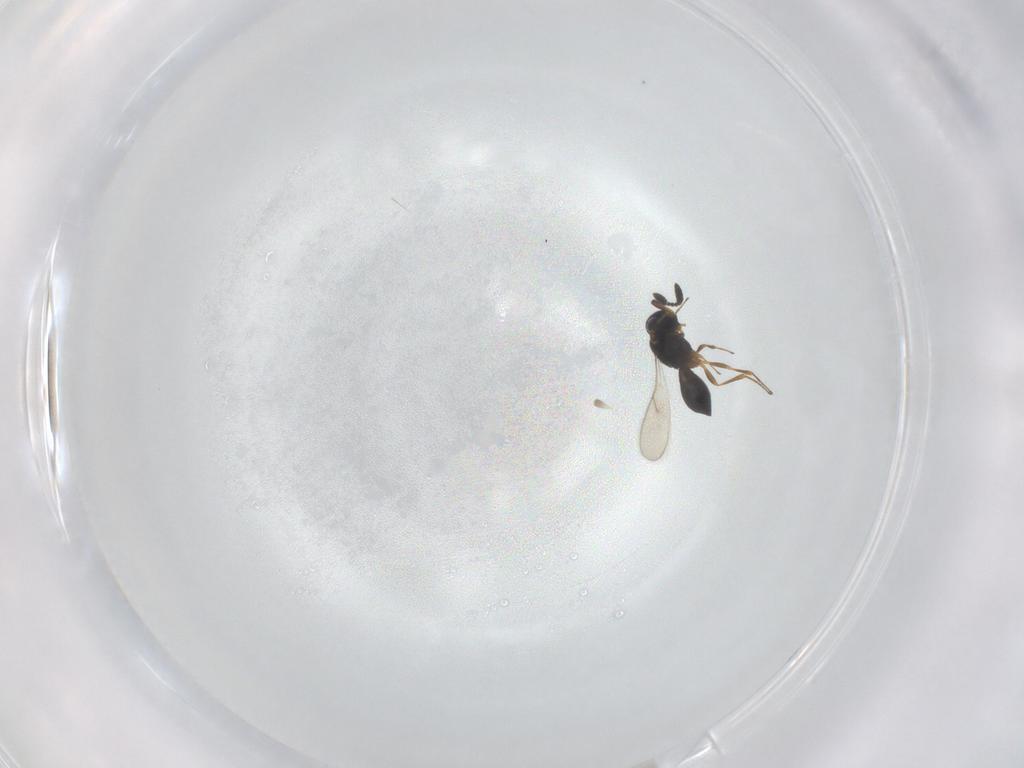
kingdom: Animalia
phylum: Arthropoda
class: Insecta
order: Hymenoptera
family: Scelionidae
